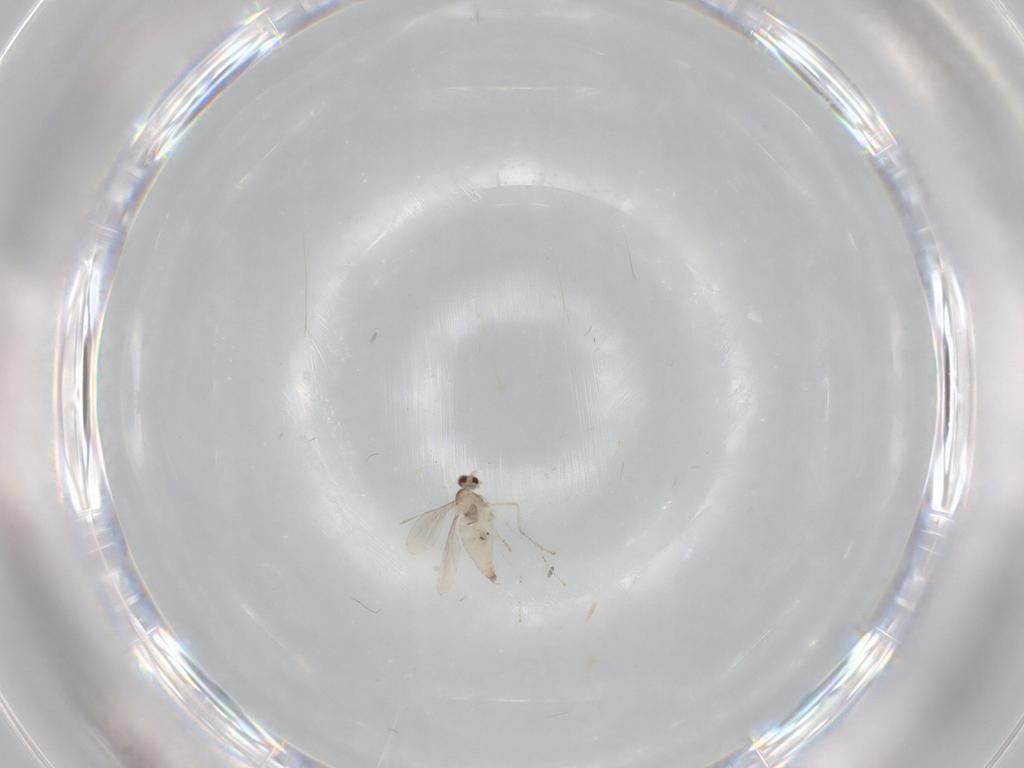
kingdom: Animalia
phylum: Arthropoda
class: Insecta
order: Diptera
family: Cecidomyiidae
